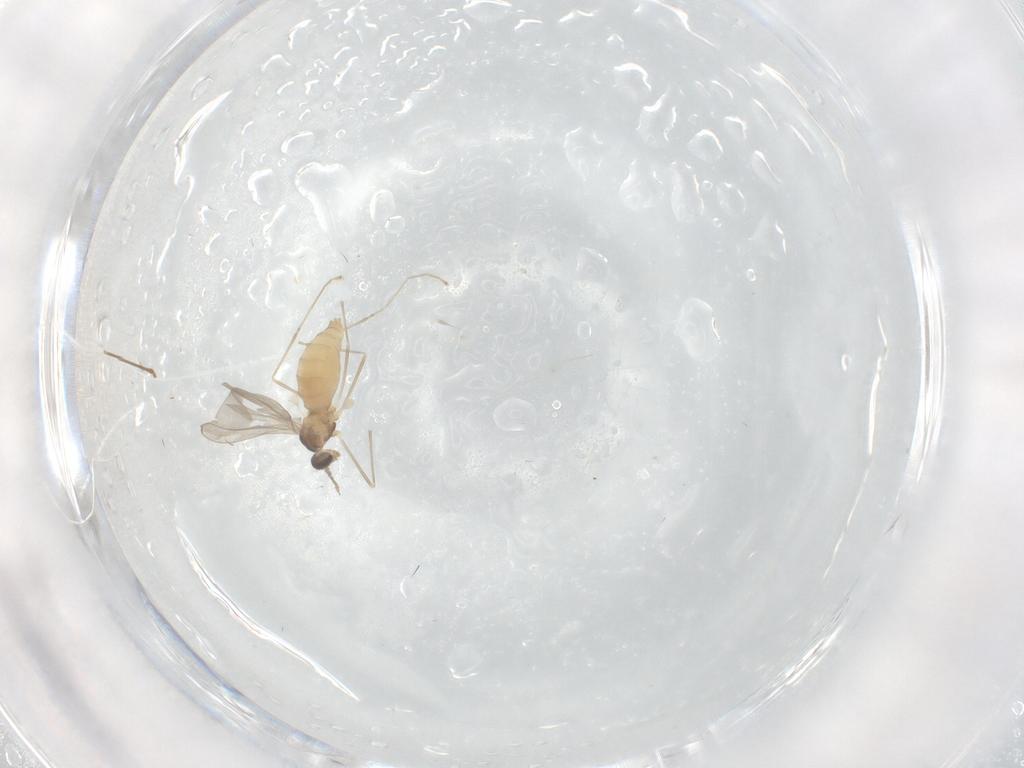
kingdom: Animalia
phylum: Arthropoda
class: Insecta
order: Diptera
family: Cecidomyiidae
